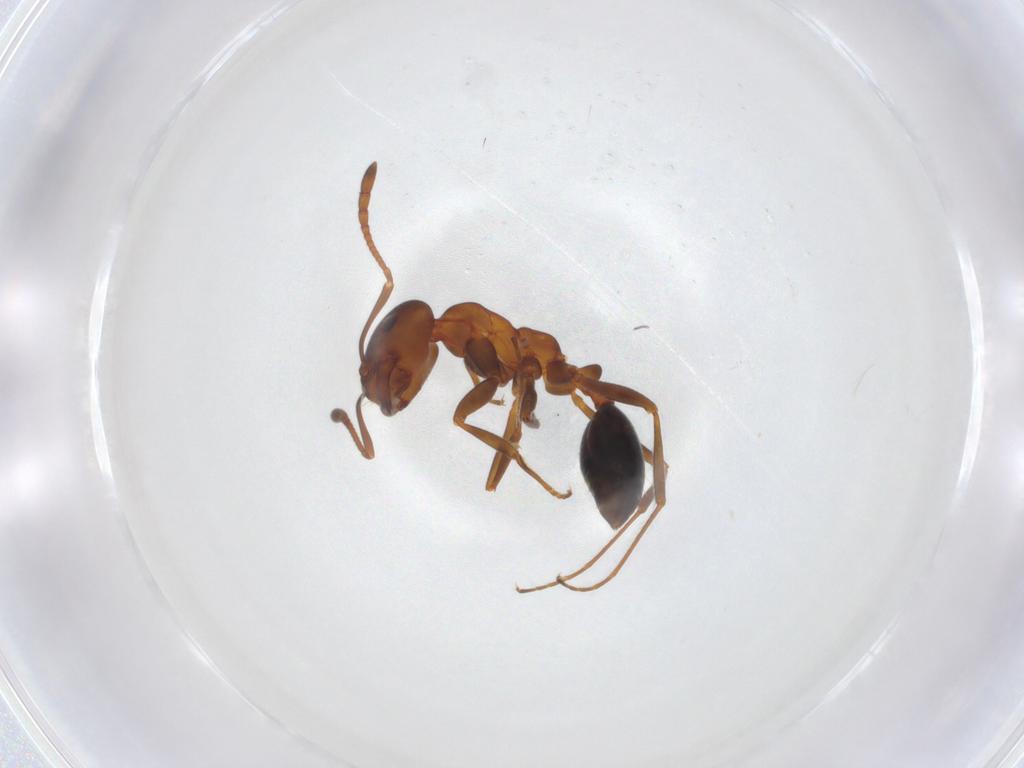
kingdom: Animalia
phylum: Arthropoda
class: Insecta
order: Hymenoptera
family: Formicidae
